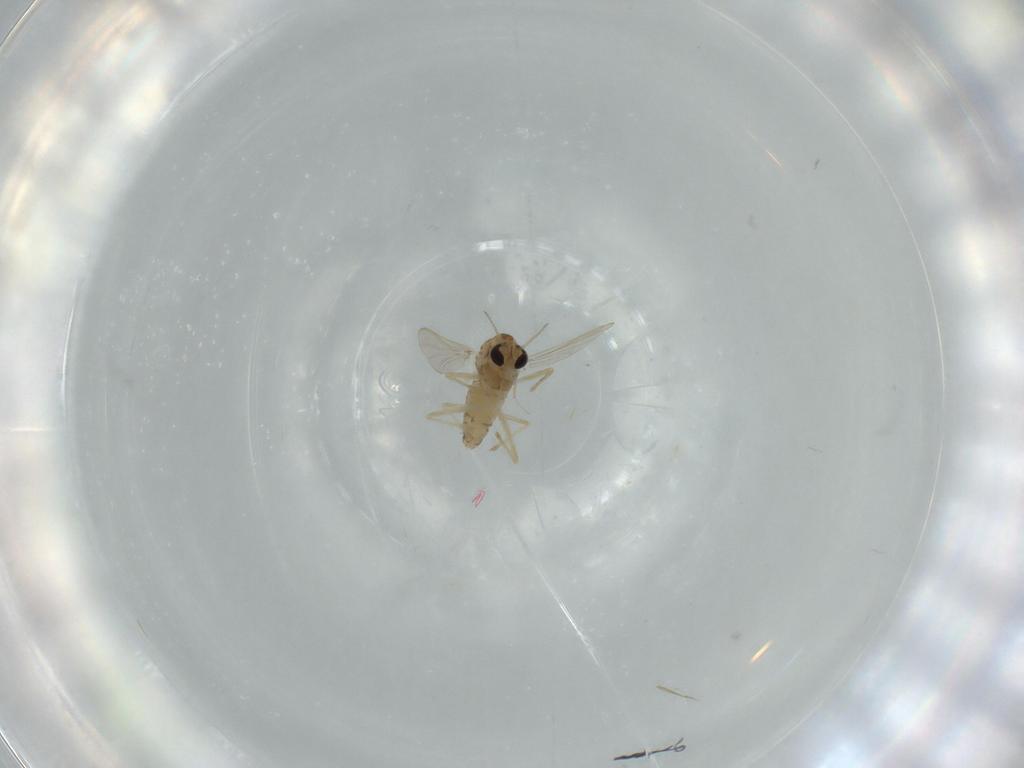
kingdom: Animalia
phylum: Arthropoda
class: Insecta
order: Diptera
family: Chironomidae
